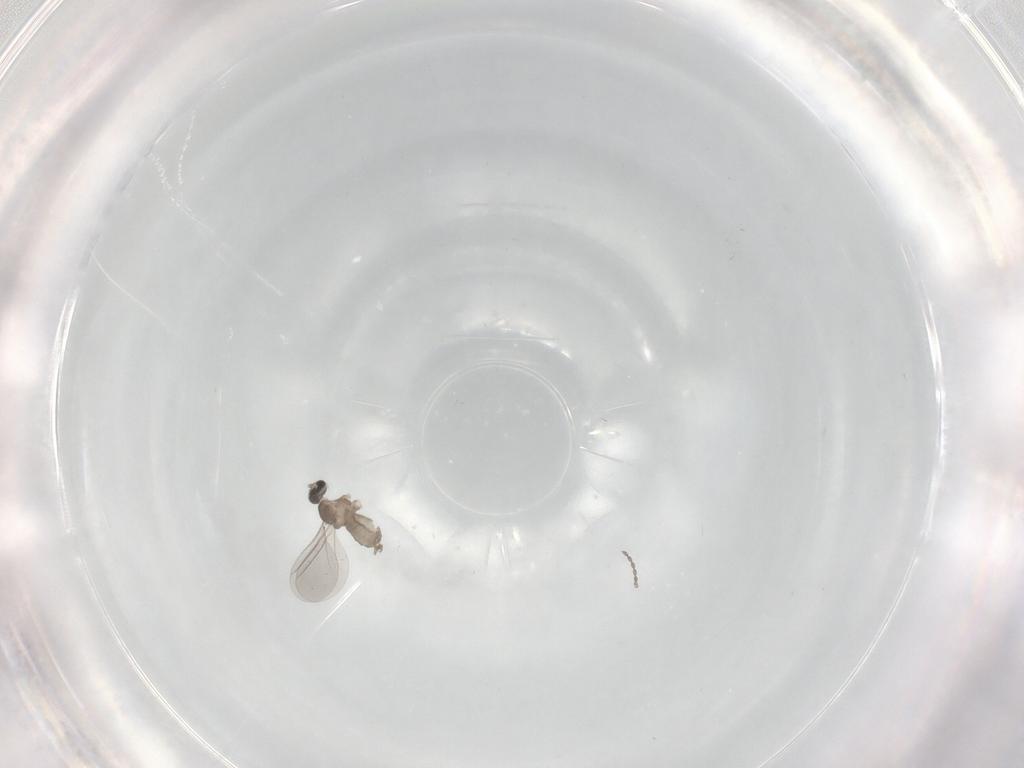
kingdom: Animalia
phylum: Arthropoda
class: Insecta
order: Diptera
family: Cecidomyiidae
